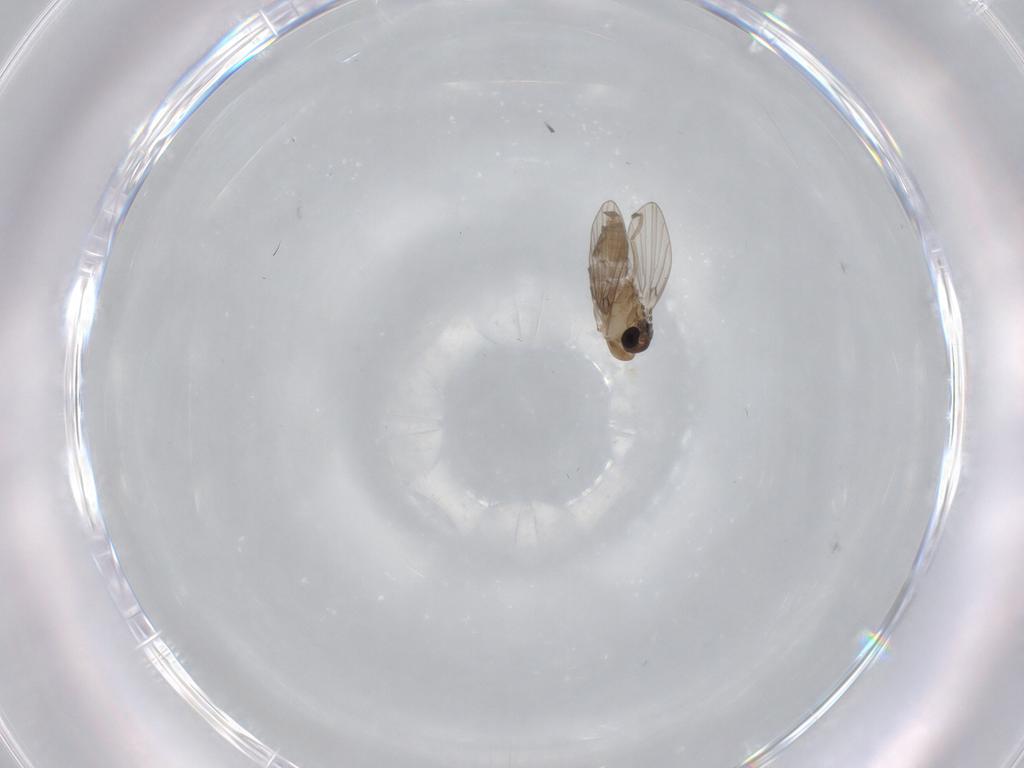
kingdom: Animalia
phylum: Arthropoda
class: Insecta
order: Diptera
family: Psychodidae
